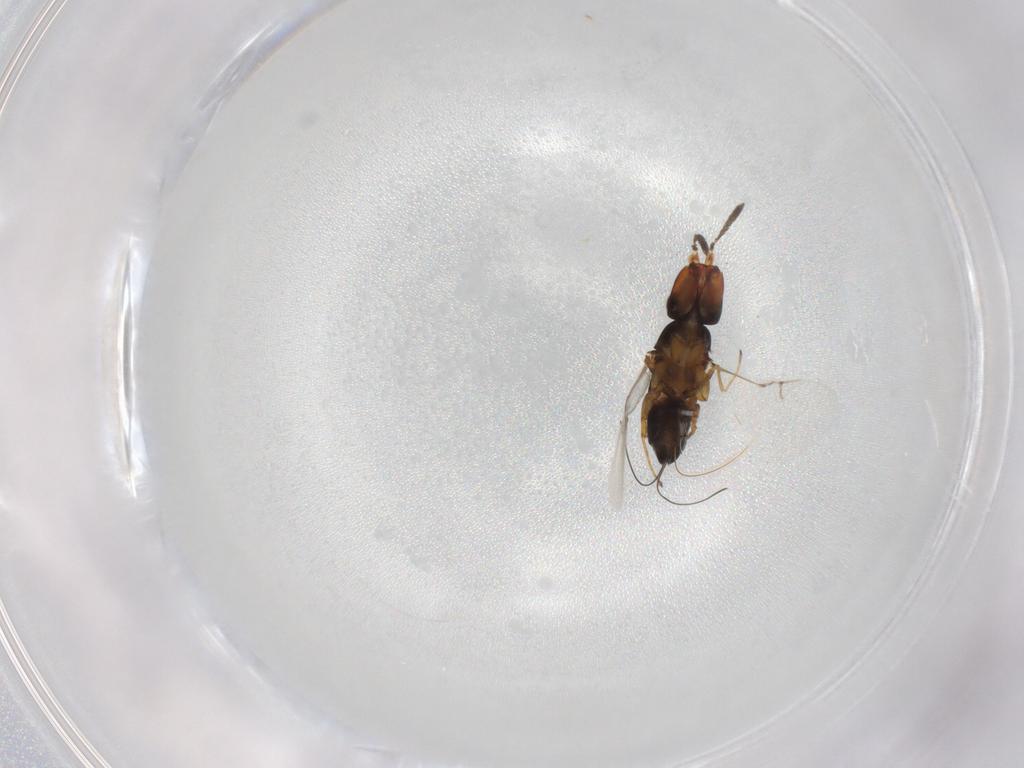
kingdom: Animalia
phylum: Arthropoda
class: Insecta
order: Hymenoptera
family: Agaonidae
